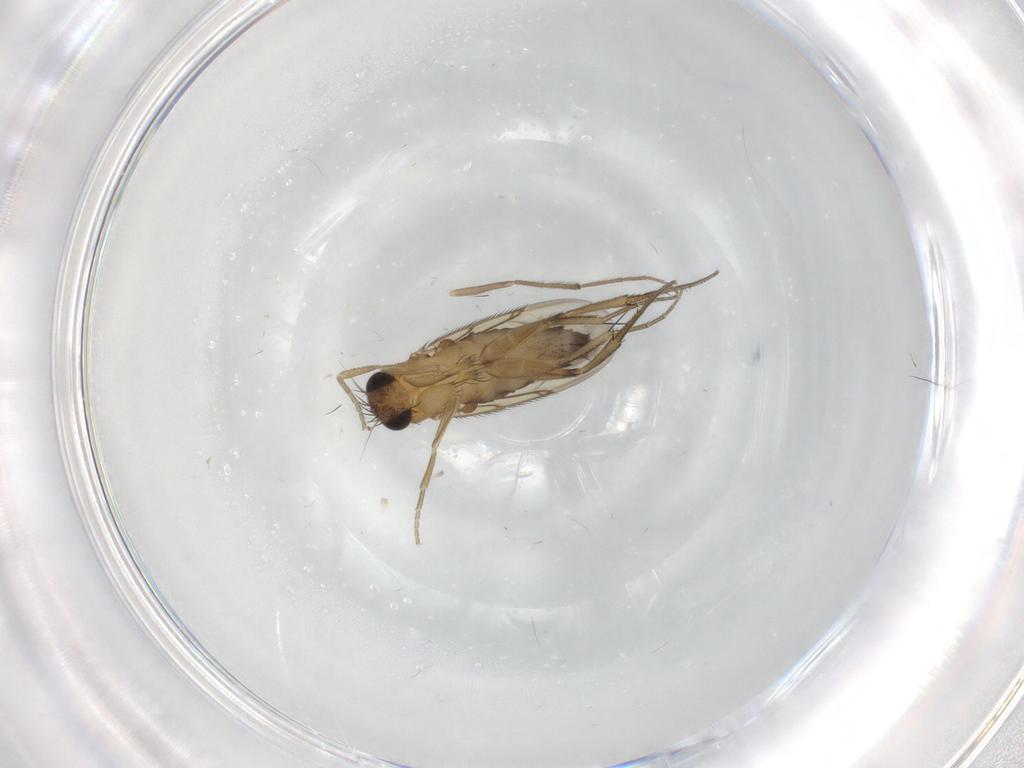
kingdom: Animalia
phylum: Arthropoda
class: Insecta
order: Diptera
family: Phoridae
